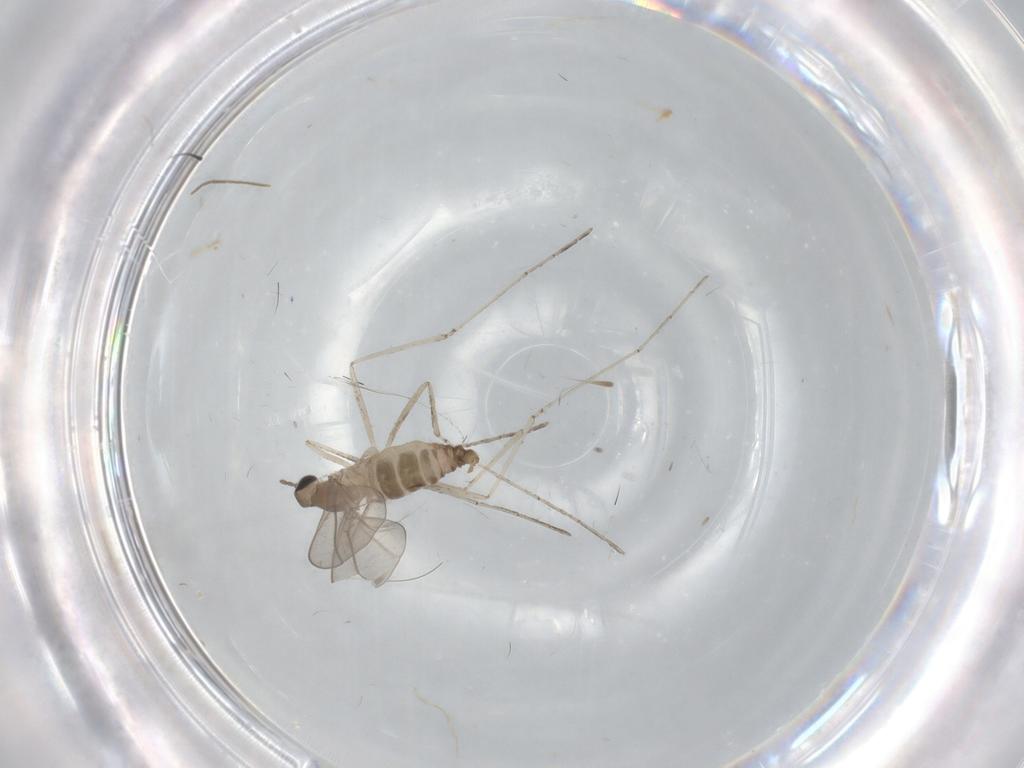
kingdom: Animalia
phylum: Arthropoda
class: Insecta
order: Diptera
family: Cecidomyiidae
